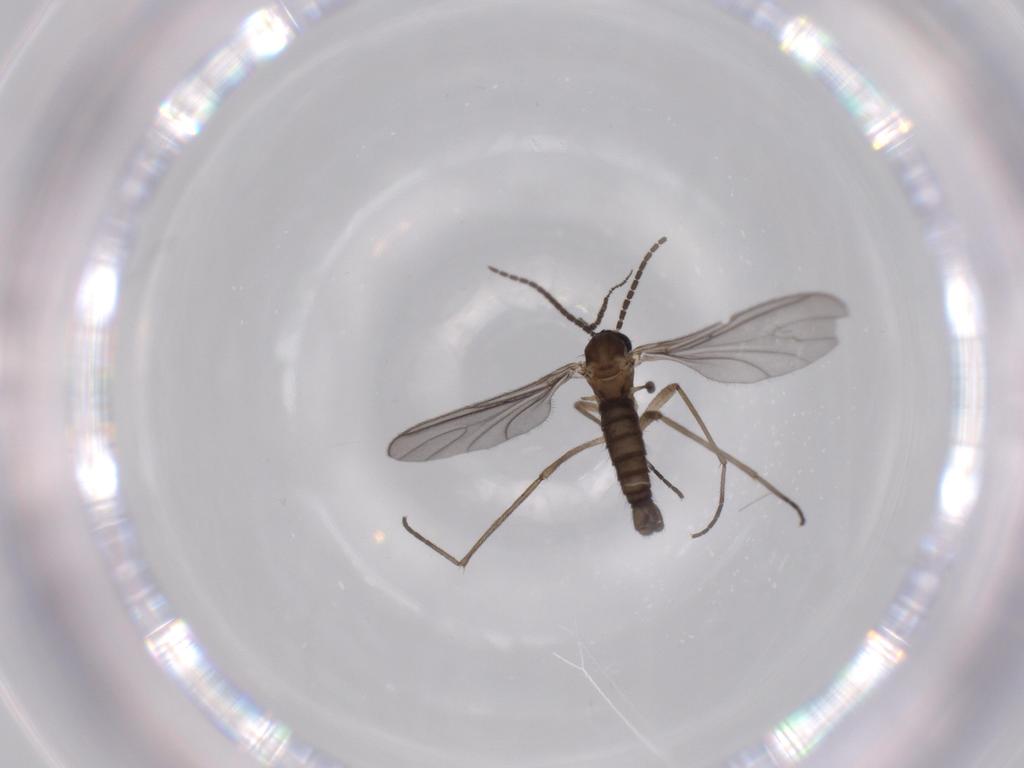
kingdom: Animalia
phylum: Arthropoda
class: Insecta
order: Diptera
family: Sciaridae
